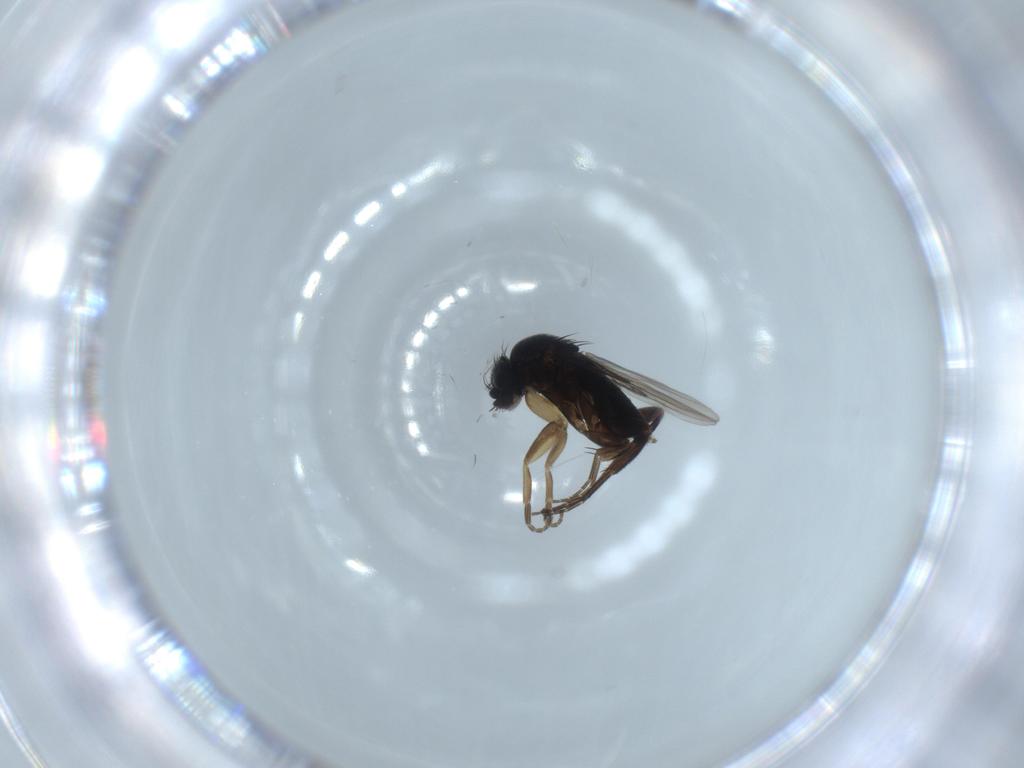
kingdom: Animalia
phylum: Arthropoda
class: Insecta
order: Diptera
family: Phoridae
